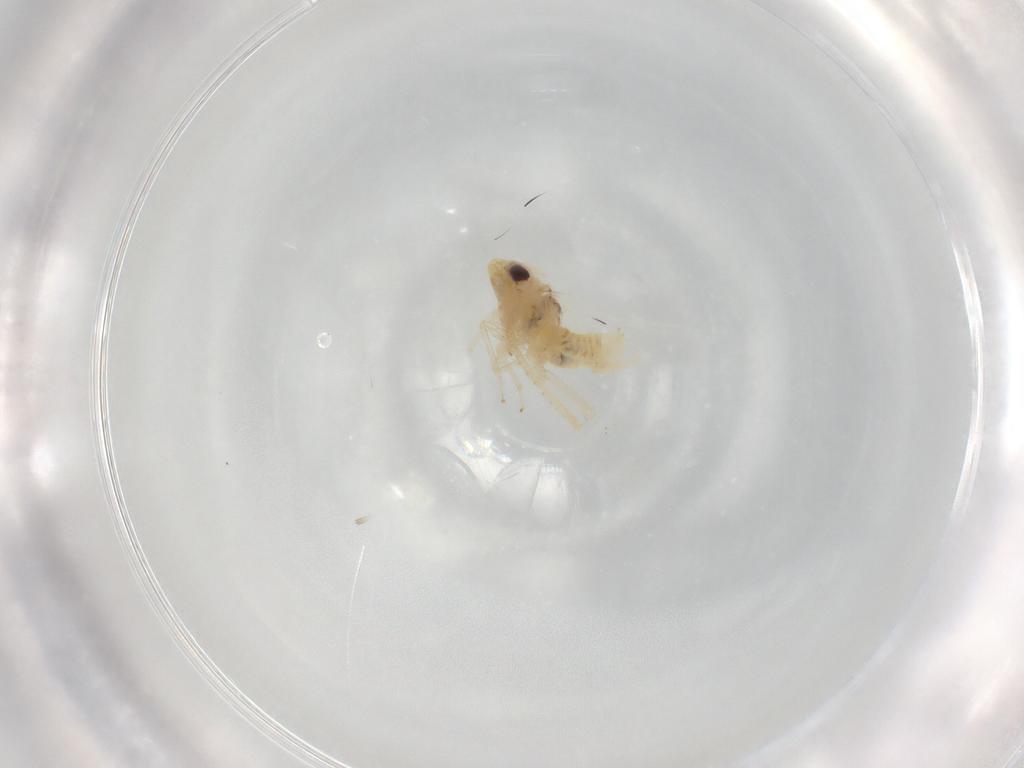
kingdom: Animalia
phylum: Arthropoda
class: Insecta
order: Hemiptera
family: Cicadellidae
